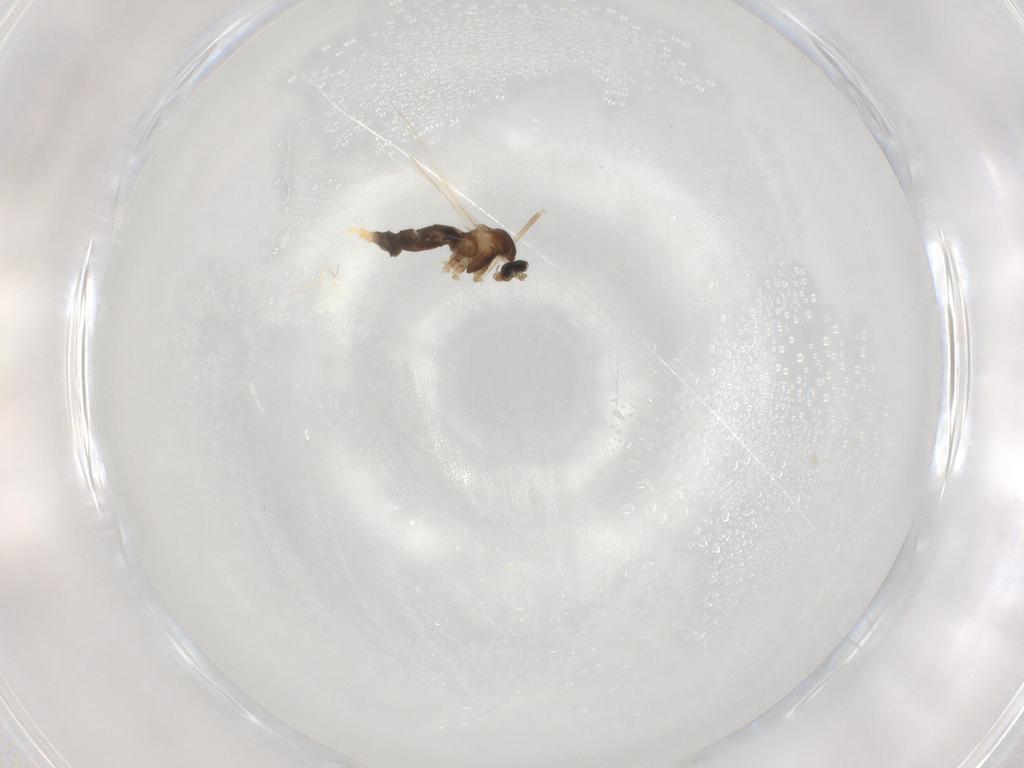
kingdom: Animalia
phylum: Arthropoda
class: Insecta
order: Diptera
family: Cecidomyiidae
